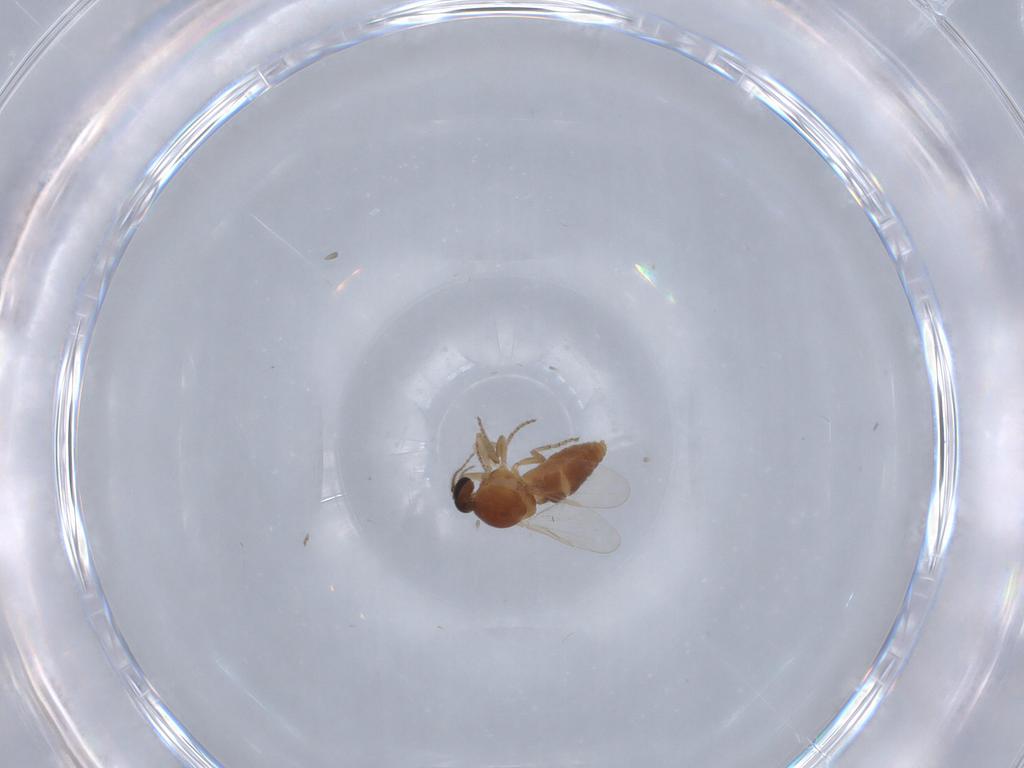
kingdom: Animalia
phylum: Arthropoda
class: Insecta
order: Diptera
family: Ceratopogonidae
